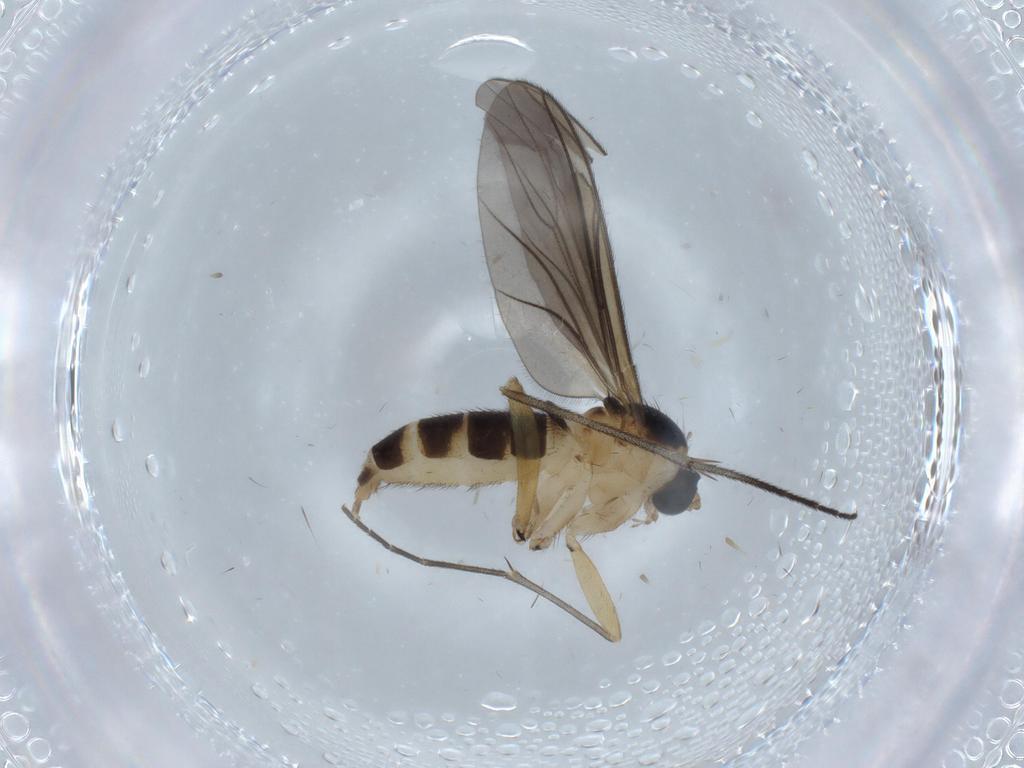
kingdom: Animalia
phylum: Arthropoda
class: Insecta
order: Diptera
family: Sciaridae
